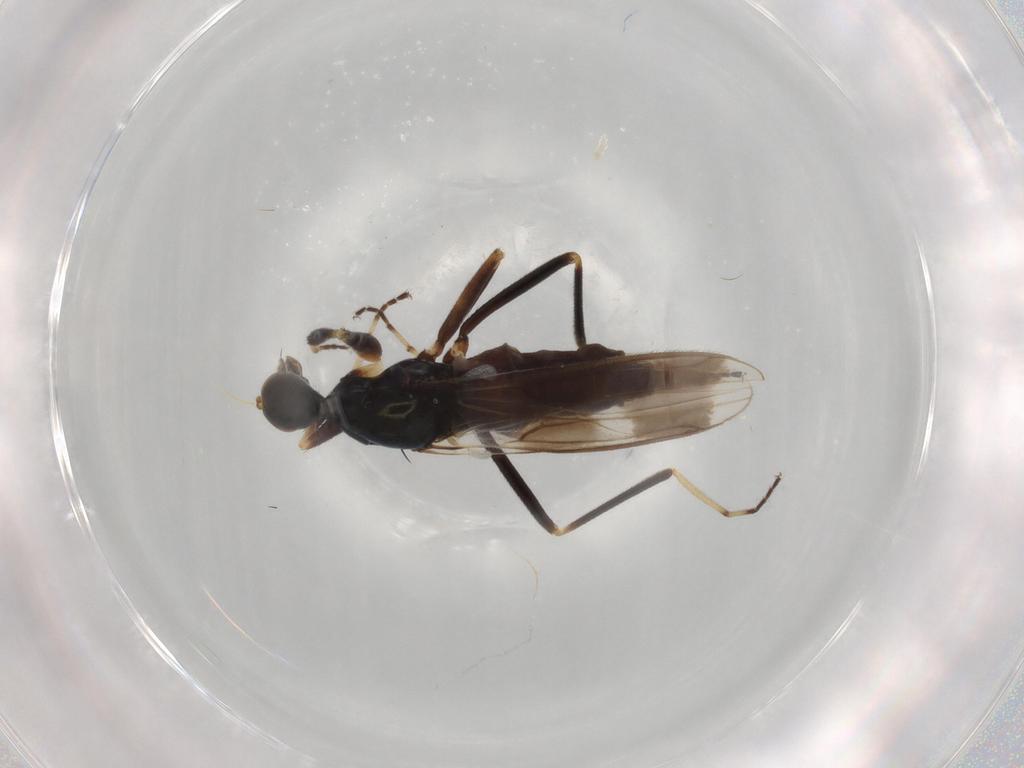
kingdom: Animalia
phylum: Arthropoda
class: Insecta
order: Diptera
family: Hybotidae
